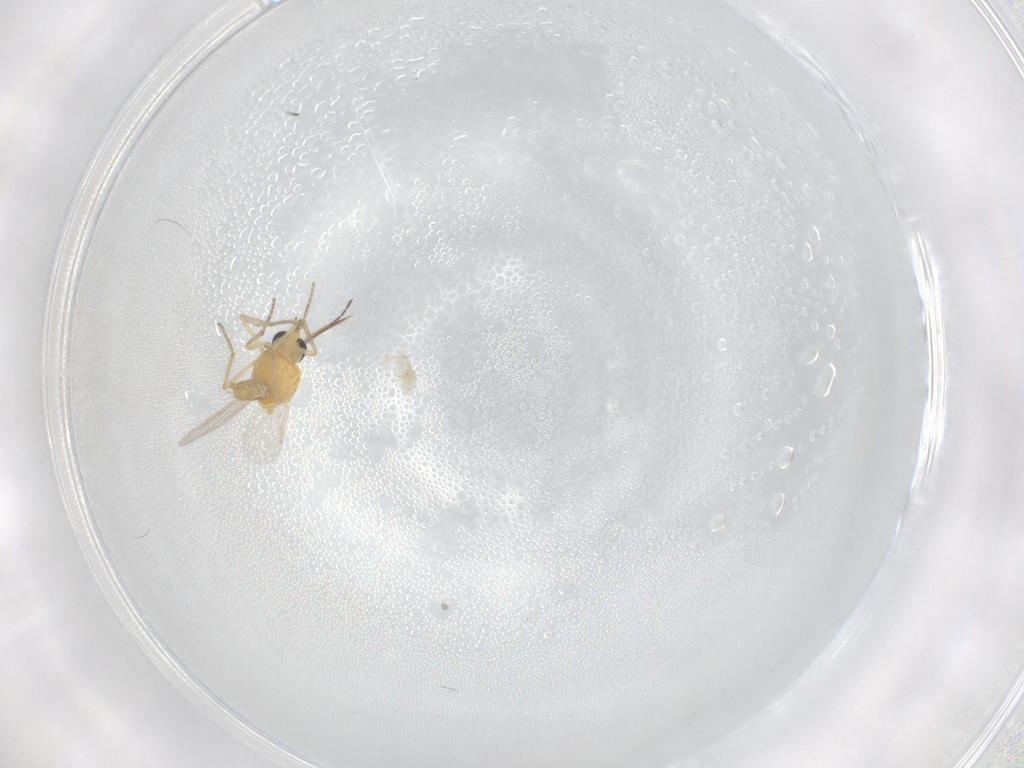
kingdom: Animalia
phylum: Arthropoda
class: Insecta
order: Diptera
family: Ceratopogonidae
